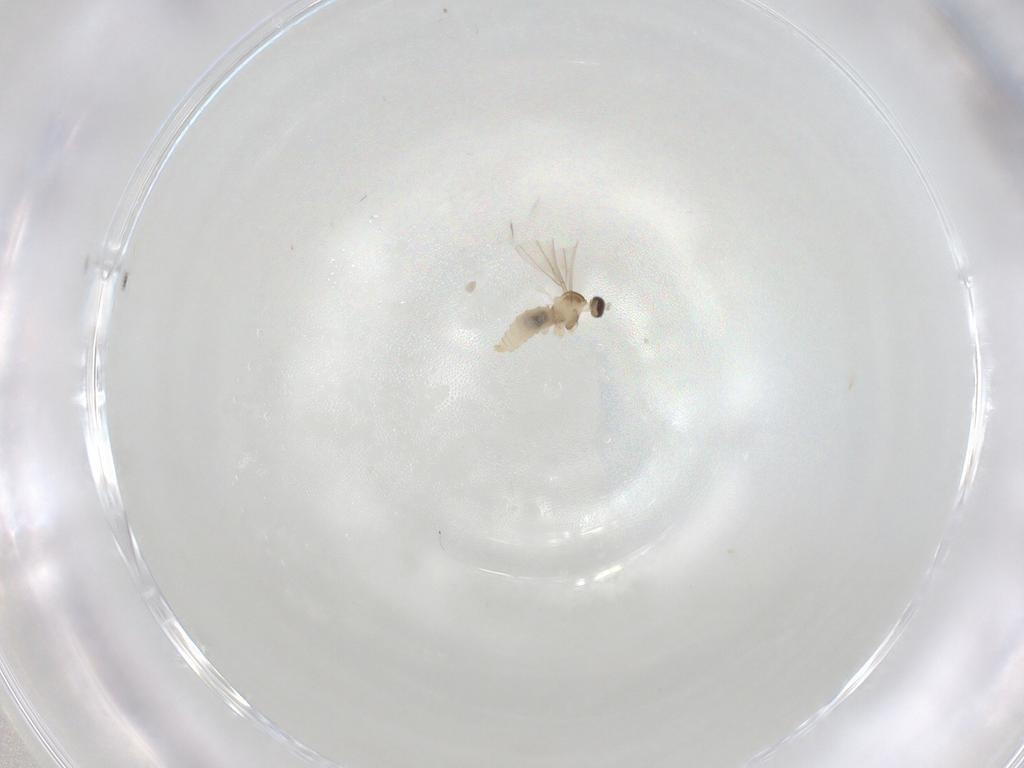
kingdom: Animalia
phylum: Arthropoda
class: Insecta
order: Diptera
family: Cecidomyiidae
